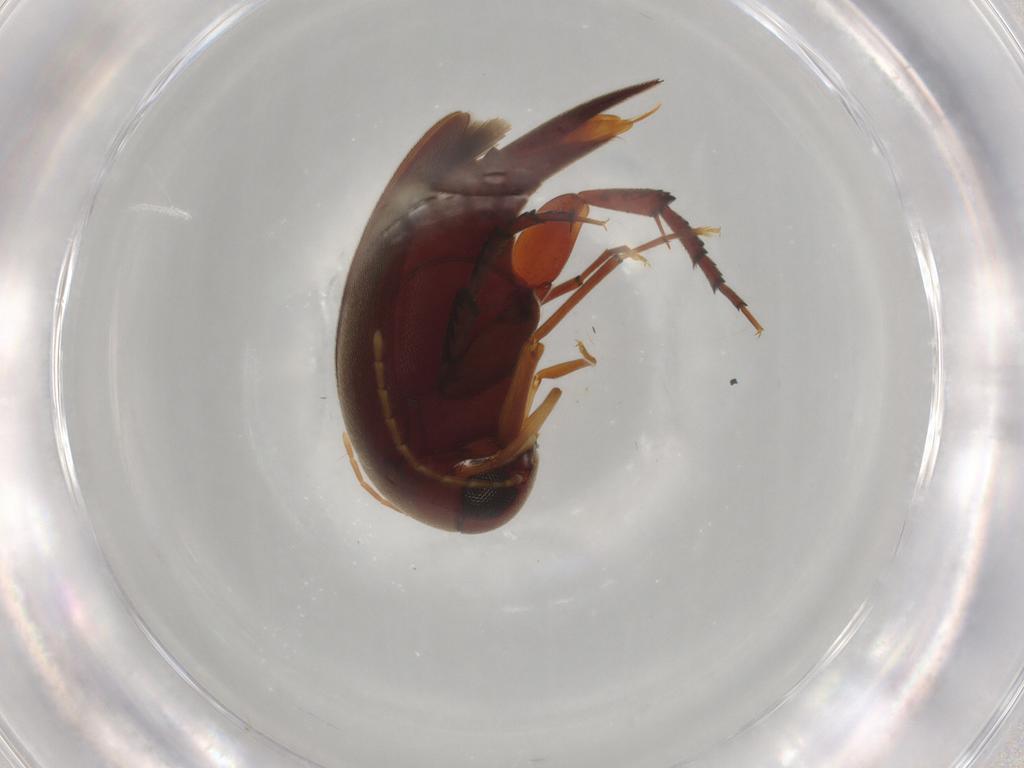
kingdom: Animalia
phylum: Arthropoda
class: Insecta
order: Coleoptera
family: Mordellidae
